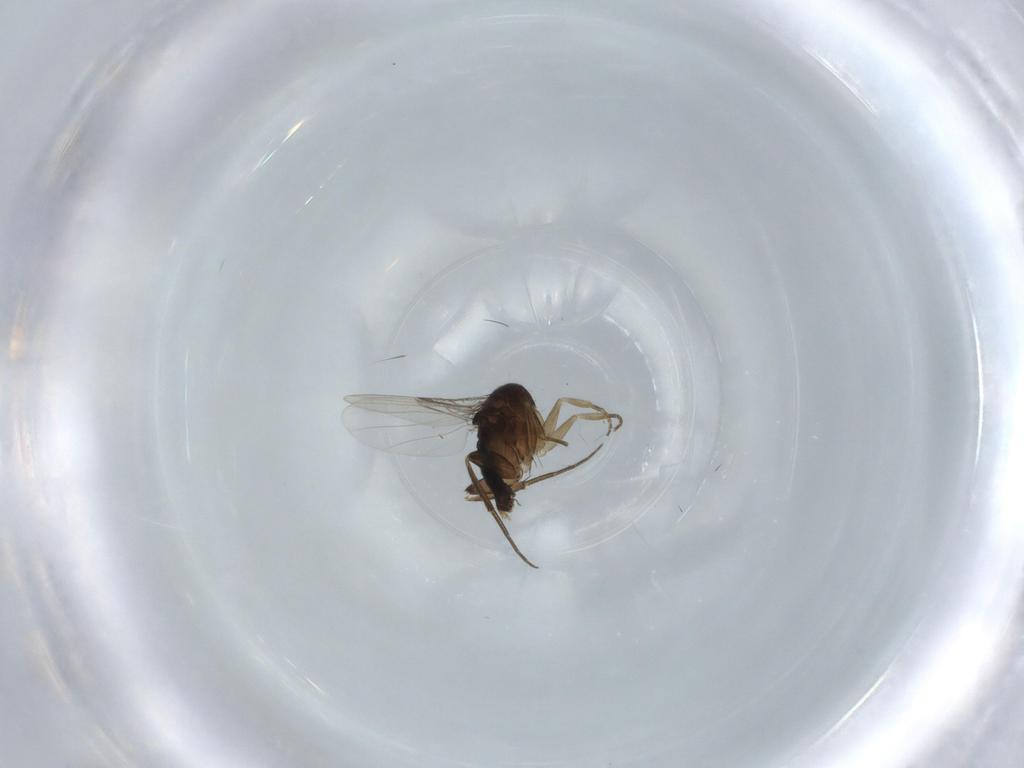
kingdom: Animalia
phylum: Arthropoda
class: Insecta
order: Diptera
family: Phoridae
